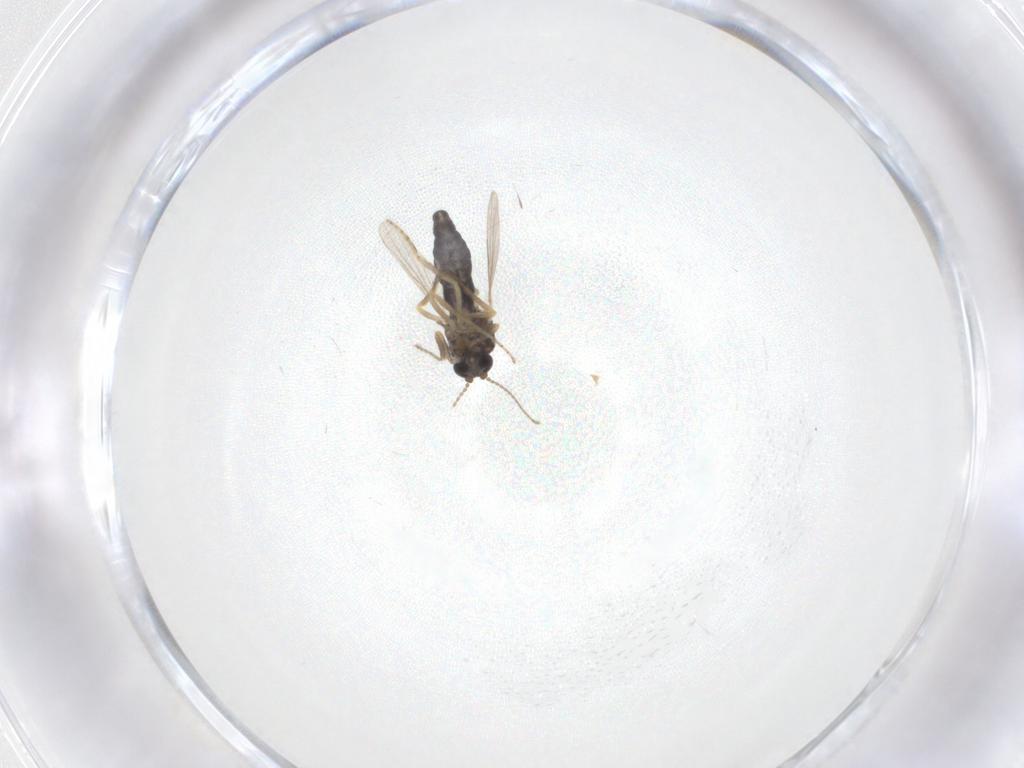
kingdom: Animalia
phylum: Arthropoda
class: Insecta
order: Diptera
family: Ceratopogonidae
